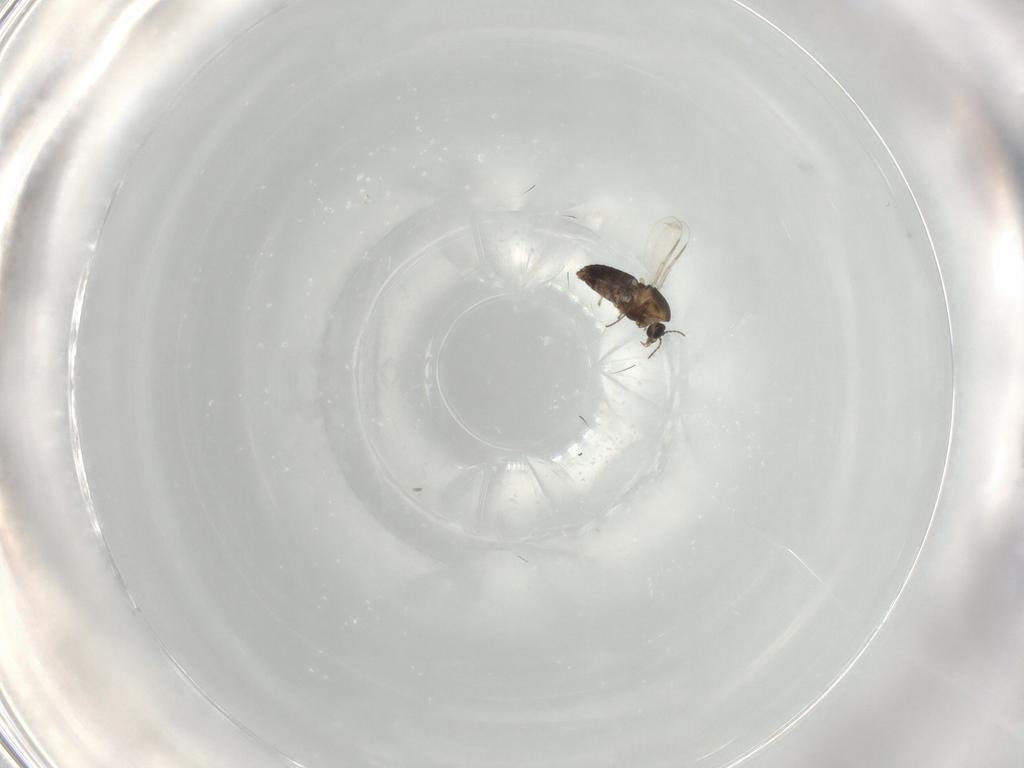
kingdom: Animalia
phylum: Arthropoda
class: Insecta
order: Diptera
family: Chironomidae
